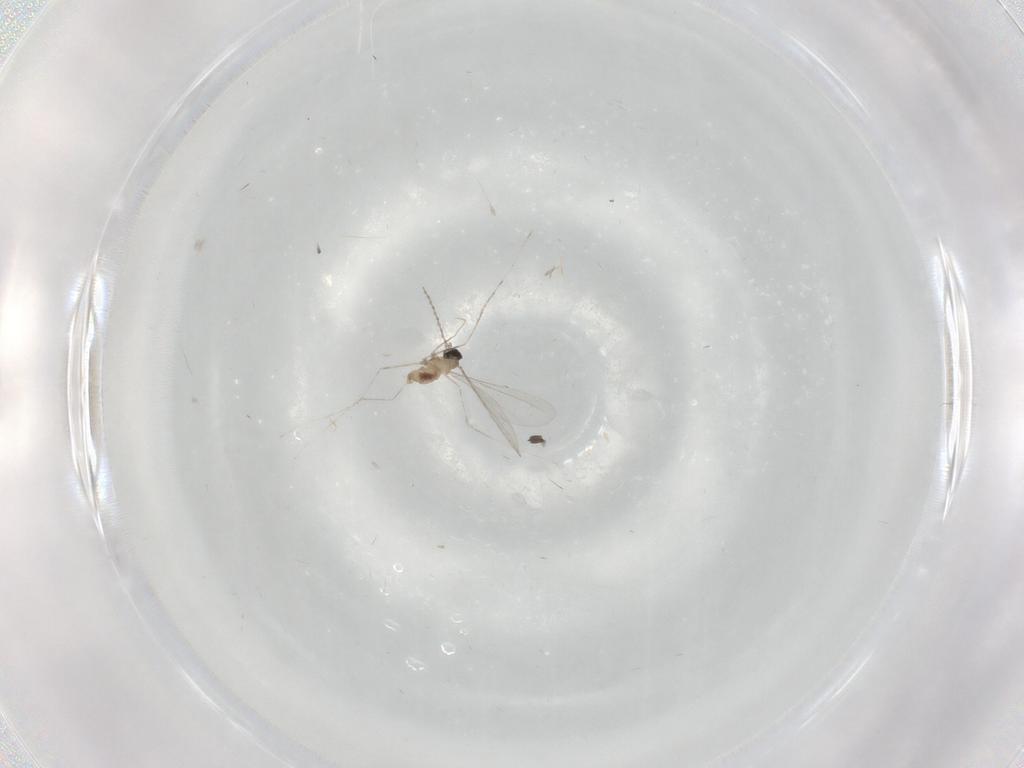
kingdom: Animalia
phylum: Arthropoda
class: Insecta
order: Diptera
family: Cecidomyiidae
